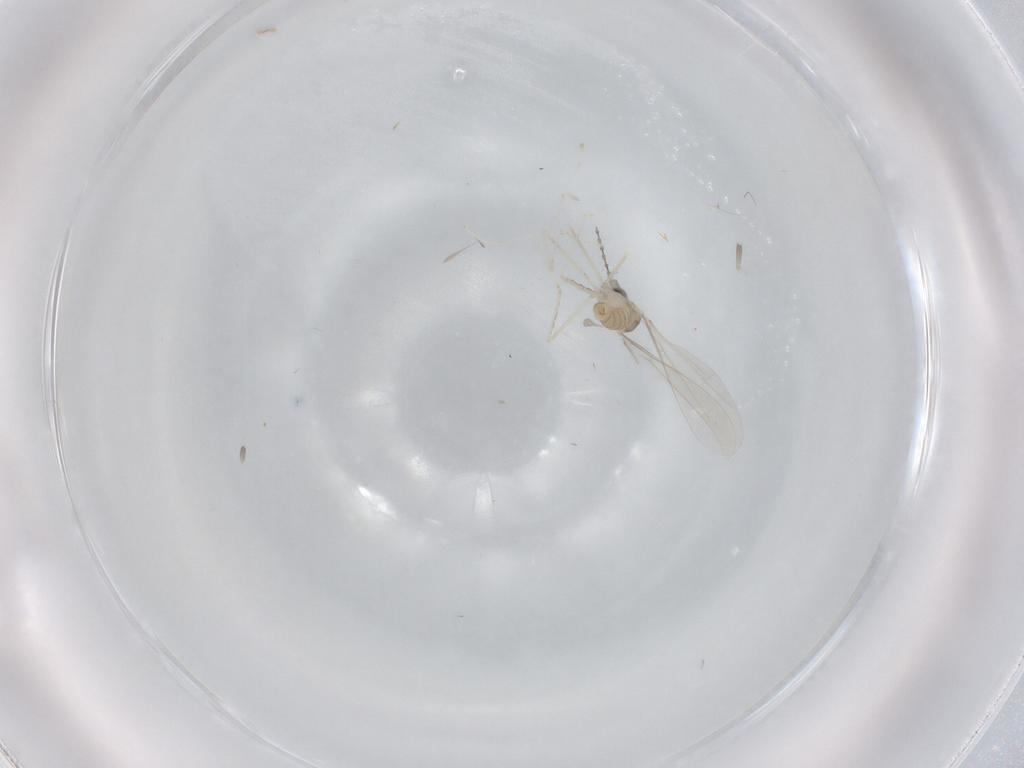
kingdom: Animalia
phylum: Arthropoda
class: Insecta
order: Diptera
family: Cecidomyiidae
